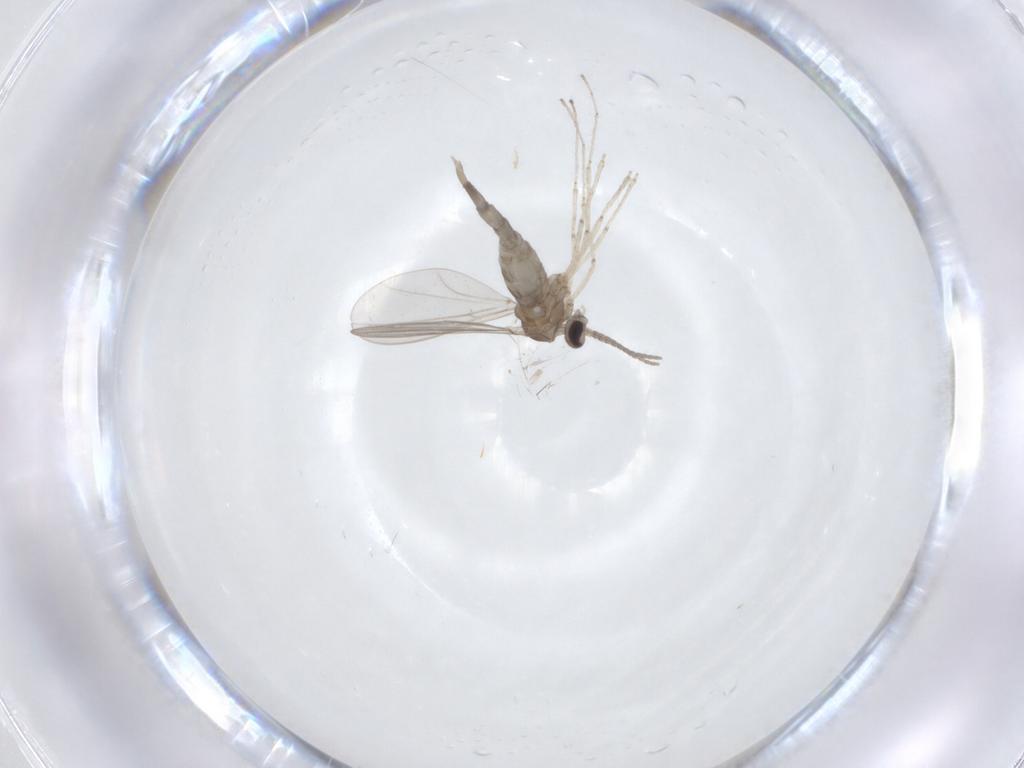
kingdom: Animalia
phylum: Arthropoda
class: Insecta
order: Diptera
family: Cecidomyiidae
